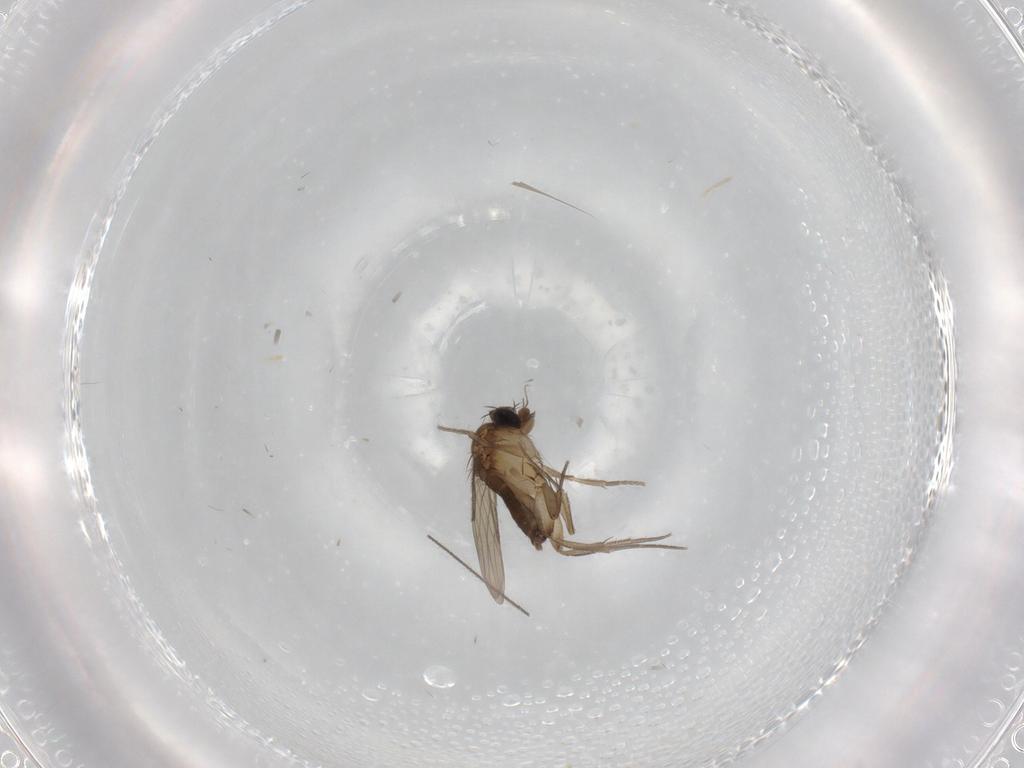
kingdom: Animalia
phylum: Arthropoda
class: Insecta
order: Diptera
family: Phoridae
